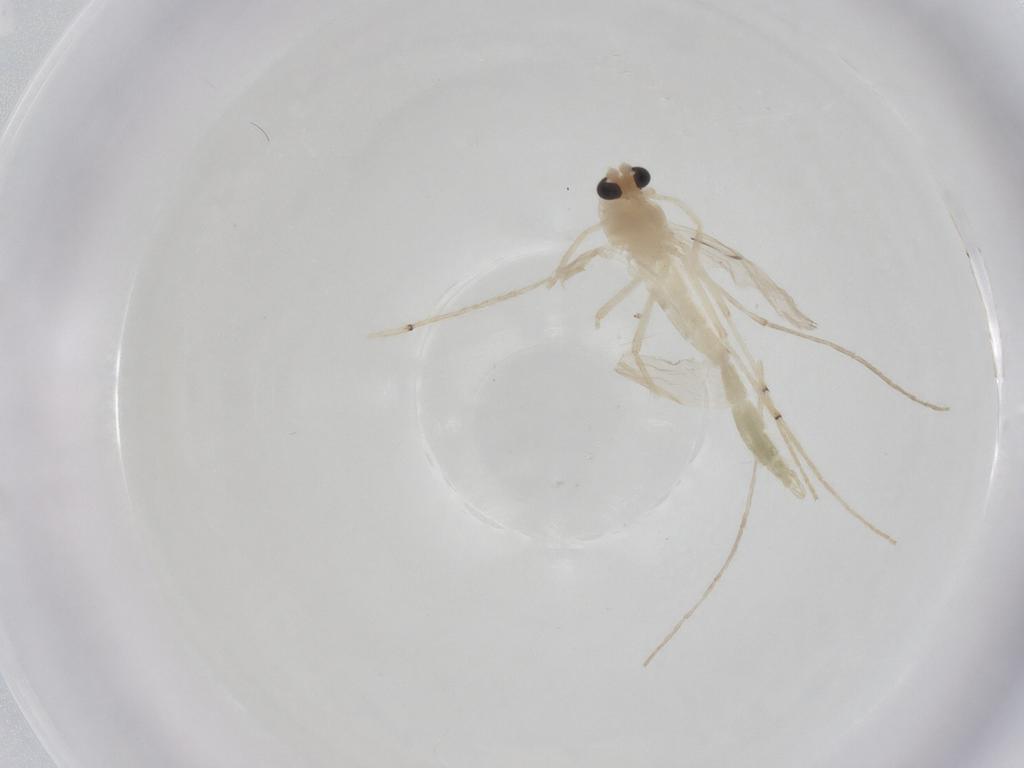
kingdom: Animalia
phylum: Arthropoda
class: Insecta
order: Diptera
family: Chironomidae
